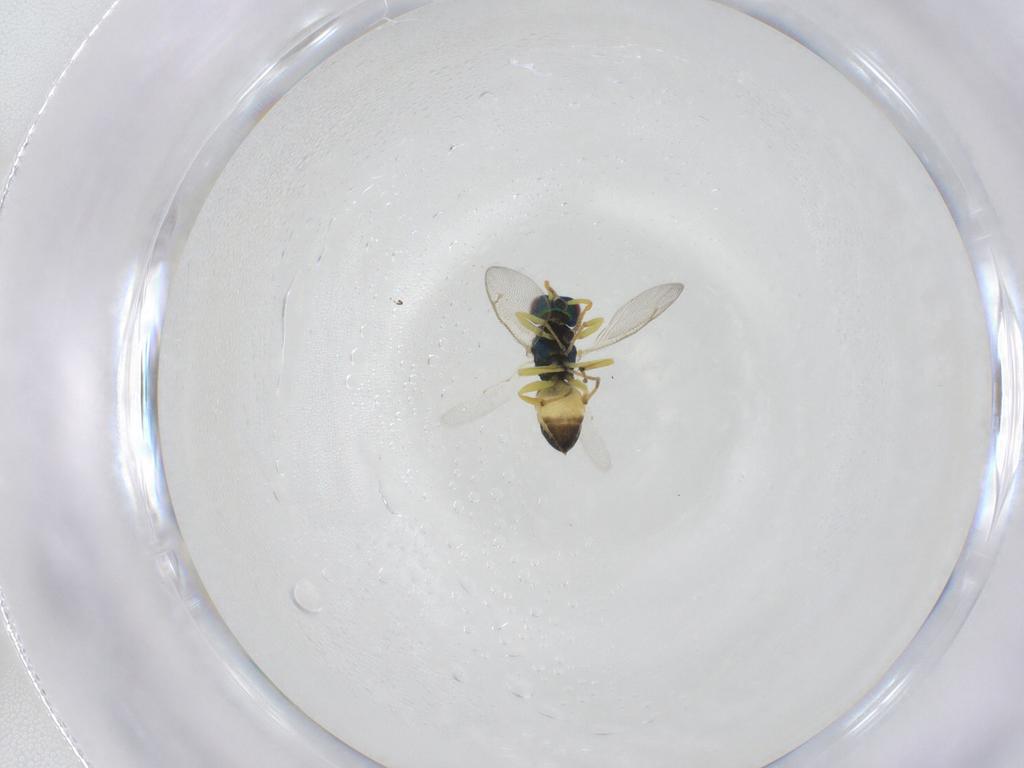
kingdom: Animalia
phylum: Arthropoda
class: Insecta
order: Hymenoptera
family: Pteromalidae
